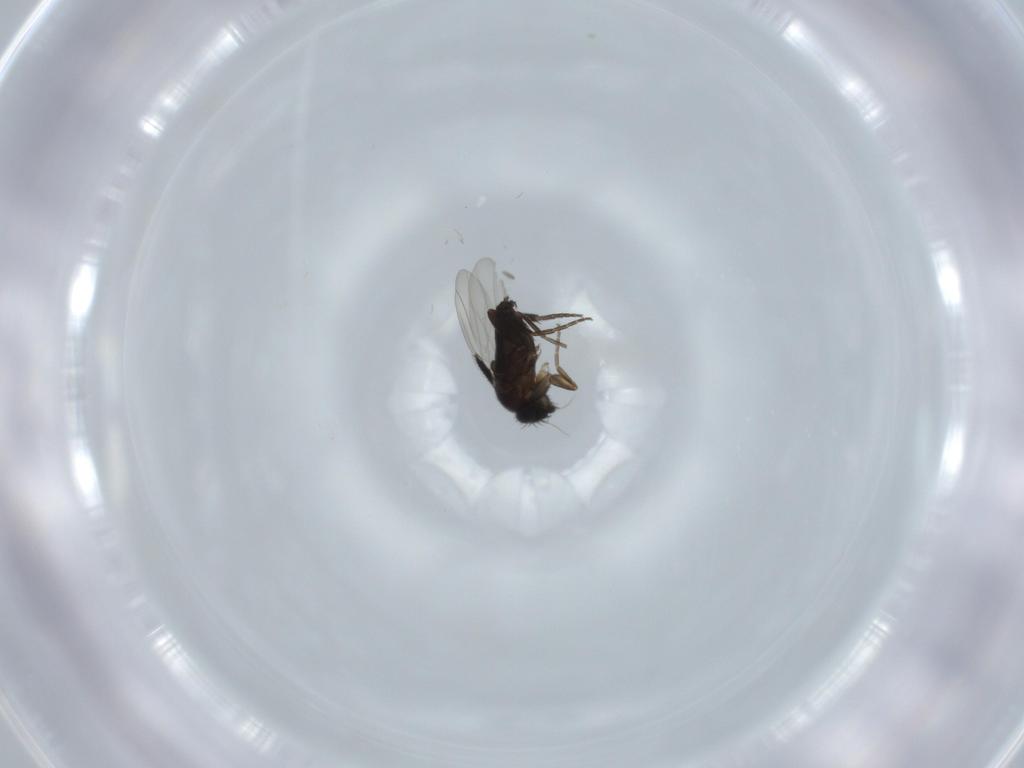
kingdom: Animalia
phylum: Arthropoda
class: Insecta
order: Diptera
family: Phoridae
